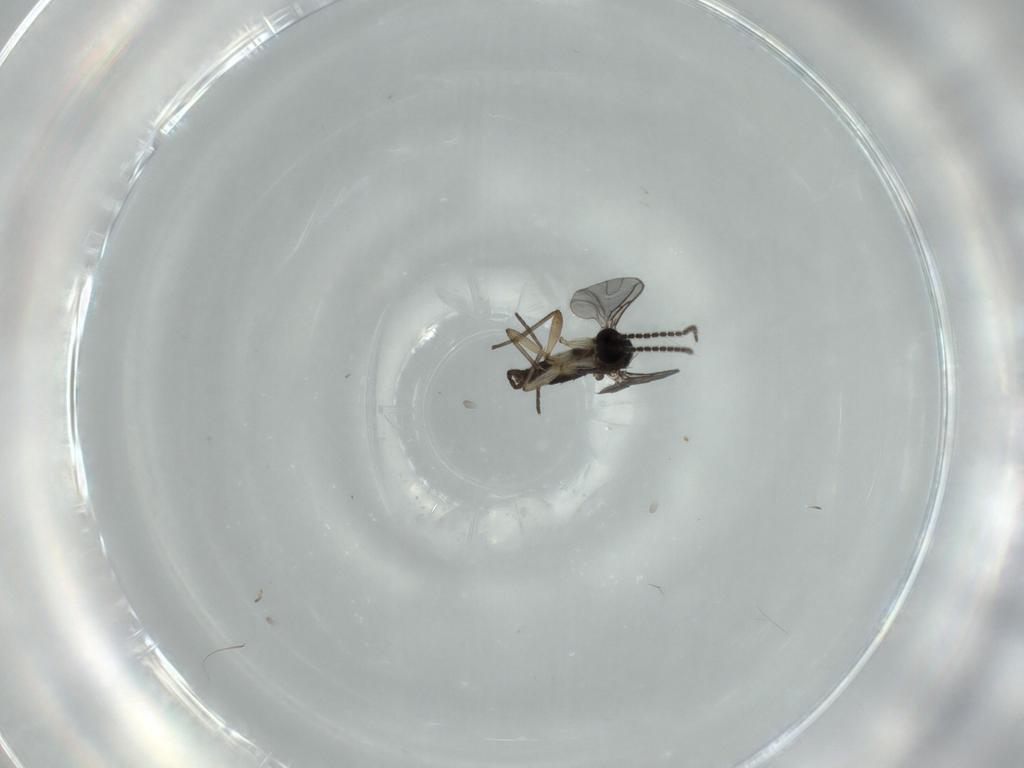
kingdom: Animalia
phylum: Arthropoda
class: Insecta
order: Diptera
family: Sciaridae
